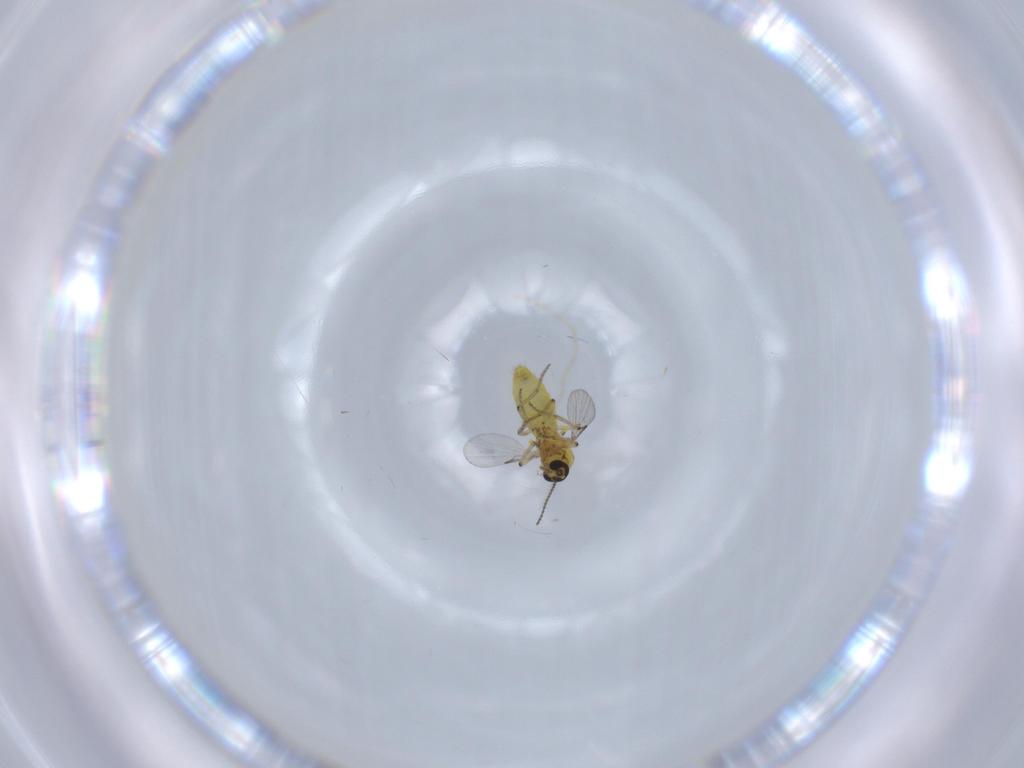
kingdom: Animalia
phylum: Arthropoda
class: Insecta
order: Diptera
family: Ceratopogonidae
